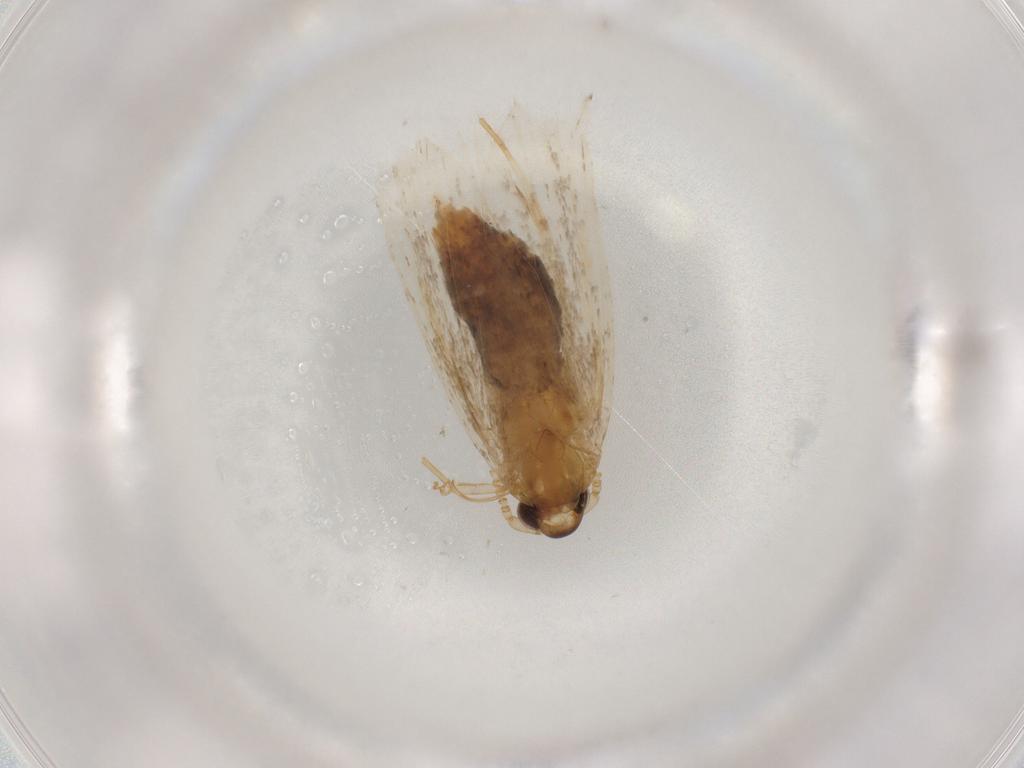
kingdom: Animalia
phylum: Arthropoda
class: Insecta
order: Lepidoptera
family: Lecithoceridae
